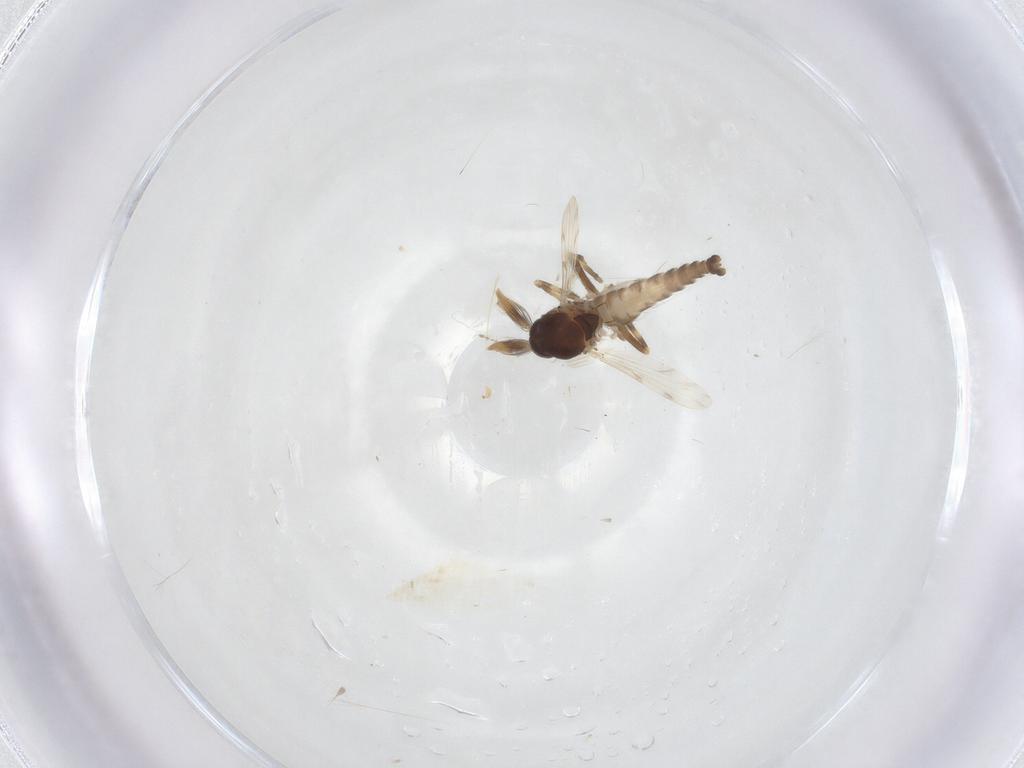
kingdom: Animalia
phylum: Arthropoda
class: Insecta
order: Diptera
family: Ceratopogonidae
